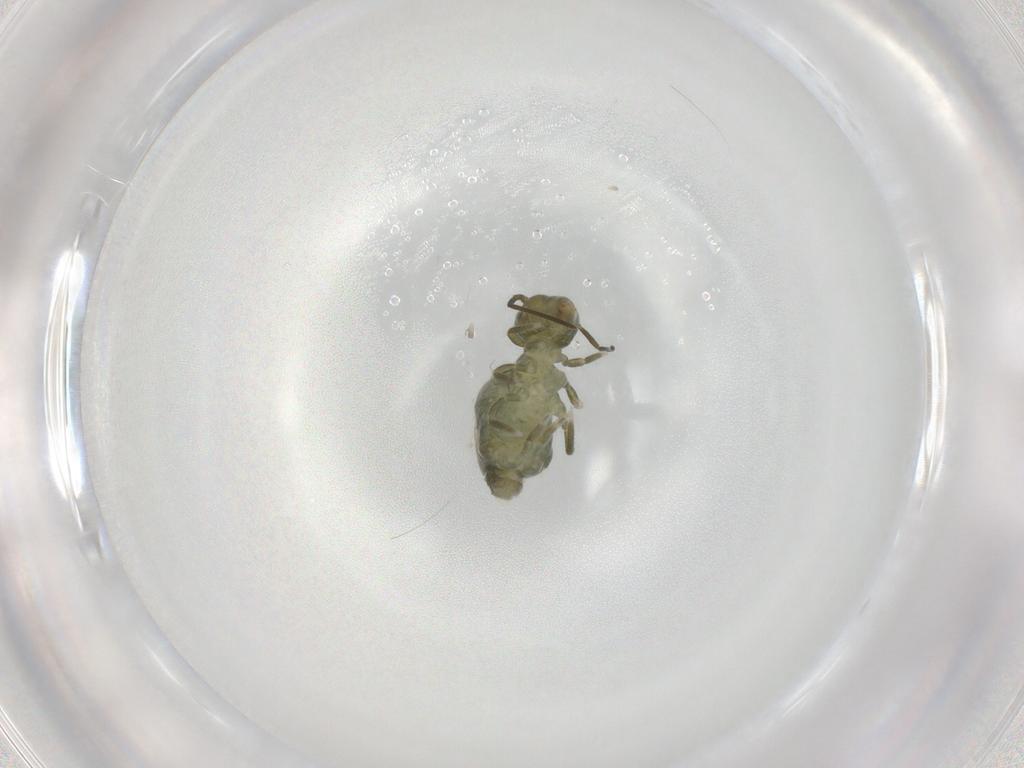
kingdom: Animalia
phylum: Arthropoda
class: Collembola
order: Symphypleona
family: Sminthuridae
